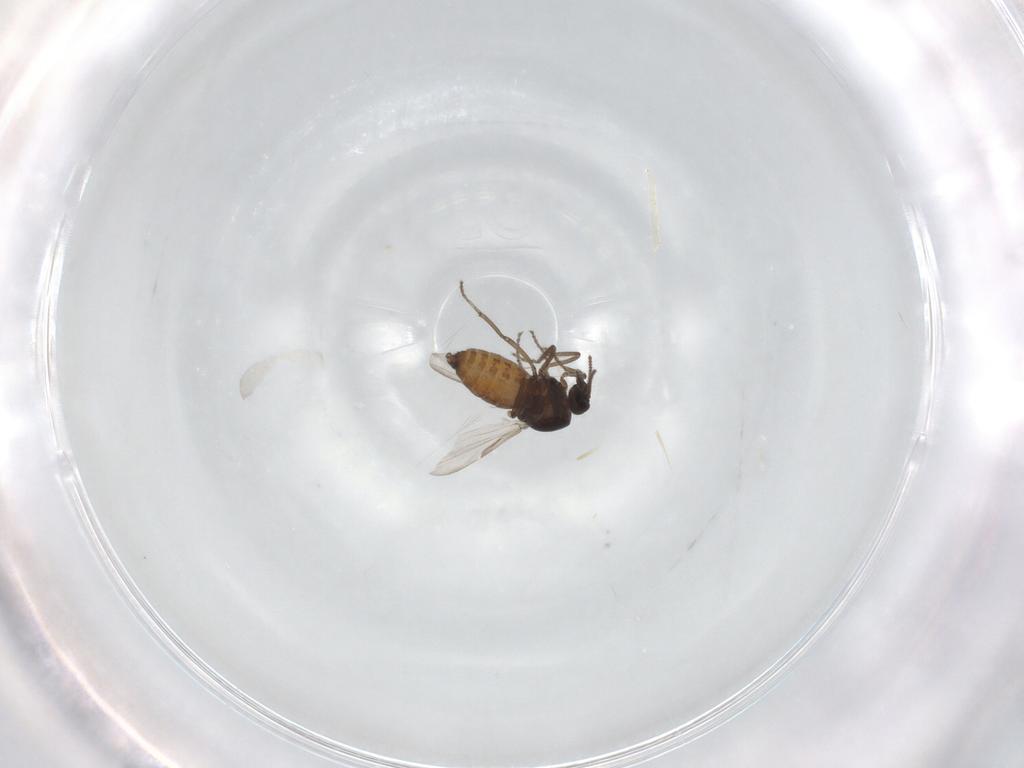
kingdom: Animalia
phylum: Arthropoda
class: Insecta
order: Diptera
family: Ceratopogonidae
